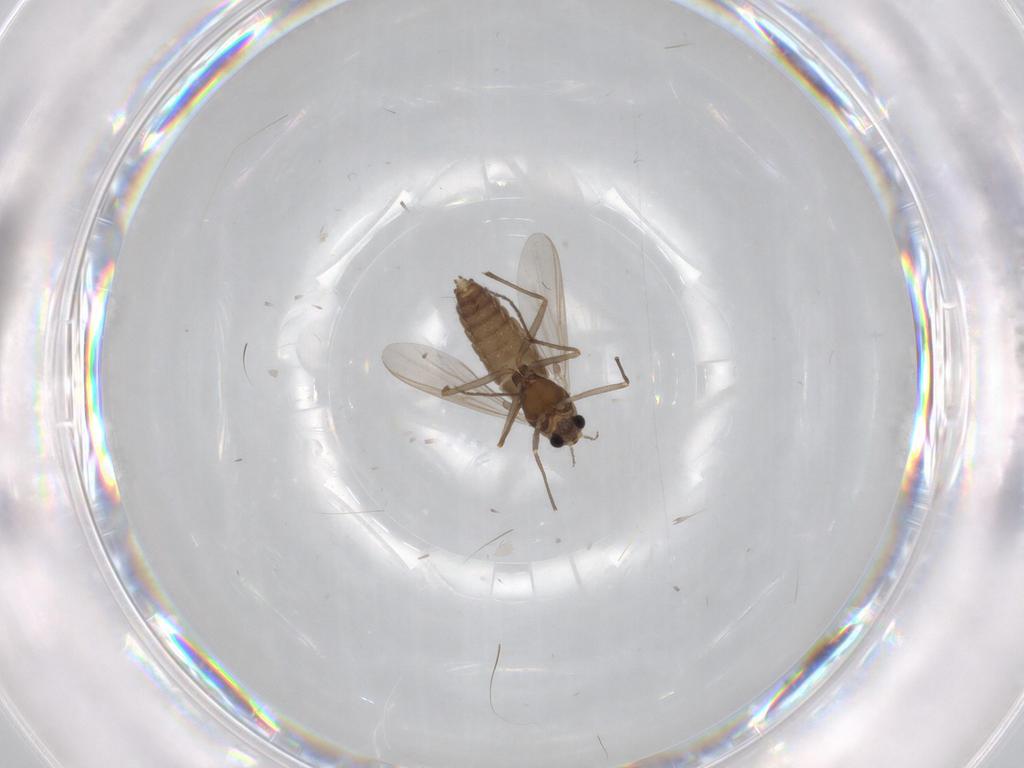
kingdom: Animalia
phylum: Arthropoda
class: Insecta
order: Diptera
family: Chironomidae
